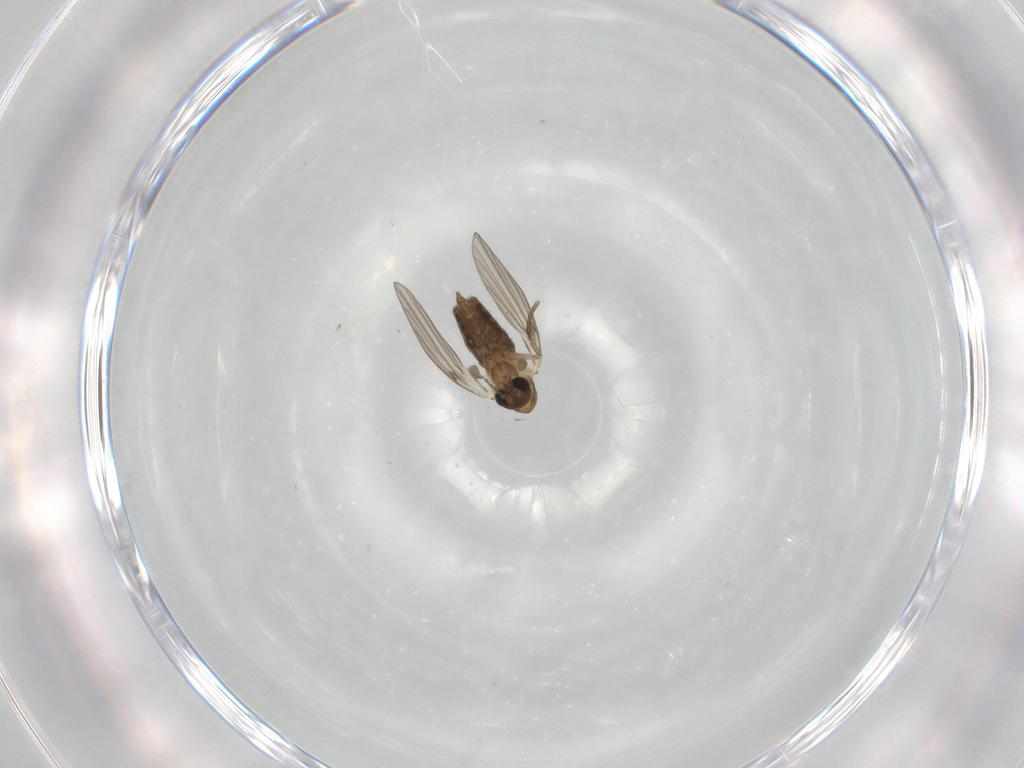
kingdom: Animalia
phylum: Arthropoda
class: Insecta
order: Diptera
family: Psychodidae
